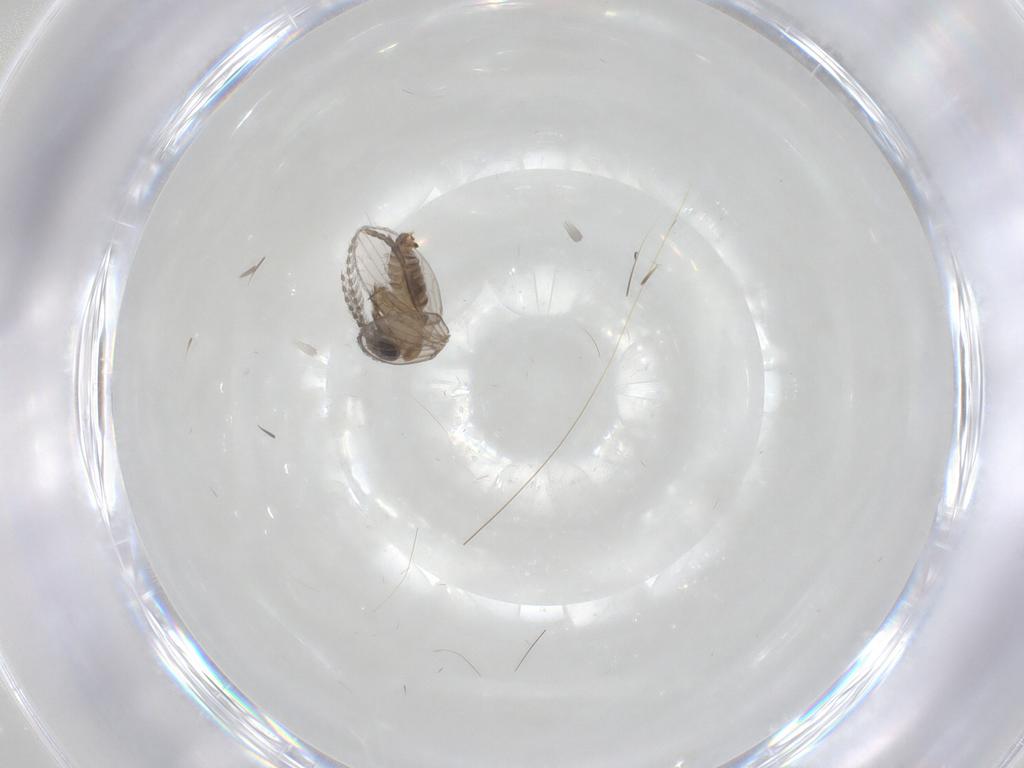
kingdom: Animalia
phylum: Arthropoda
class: Insecta
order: Diptera
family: Psychodidae
